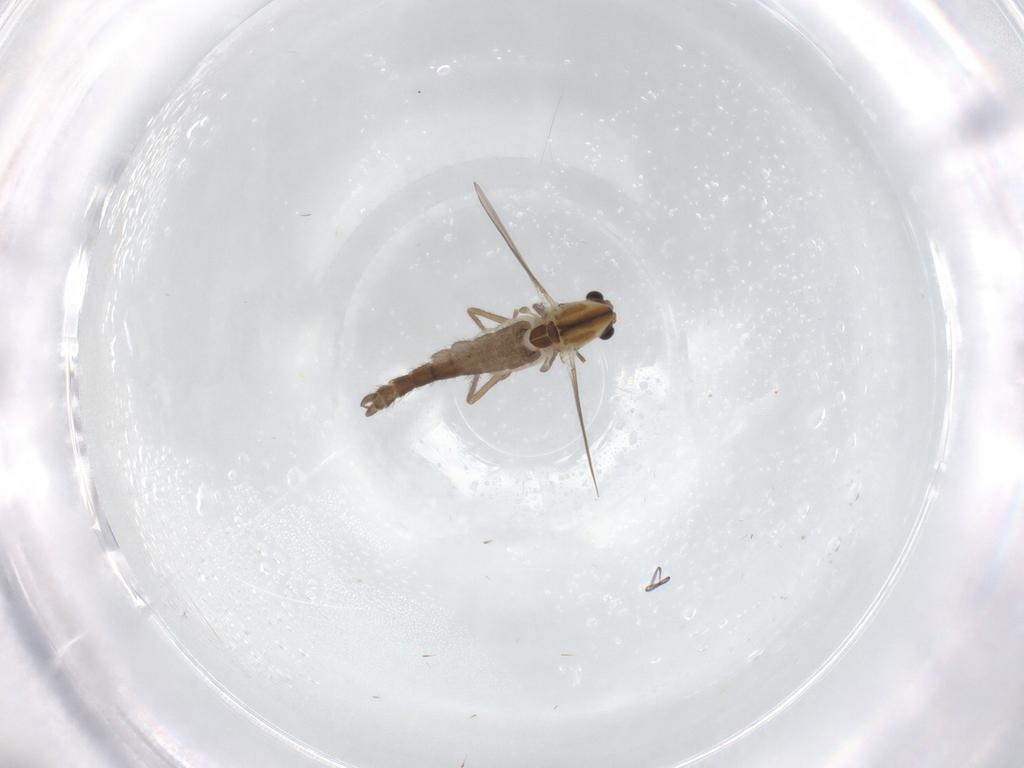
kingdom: Animalia
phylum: Arthropoda
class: Insecta
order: Diptera
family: Chironomidae
